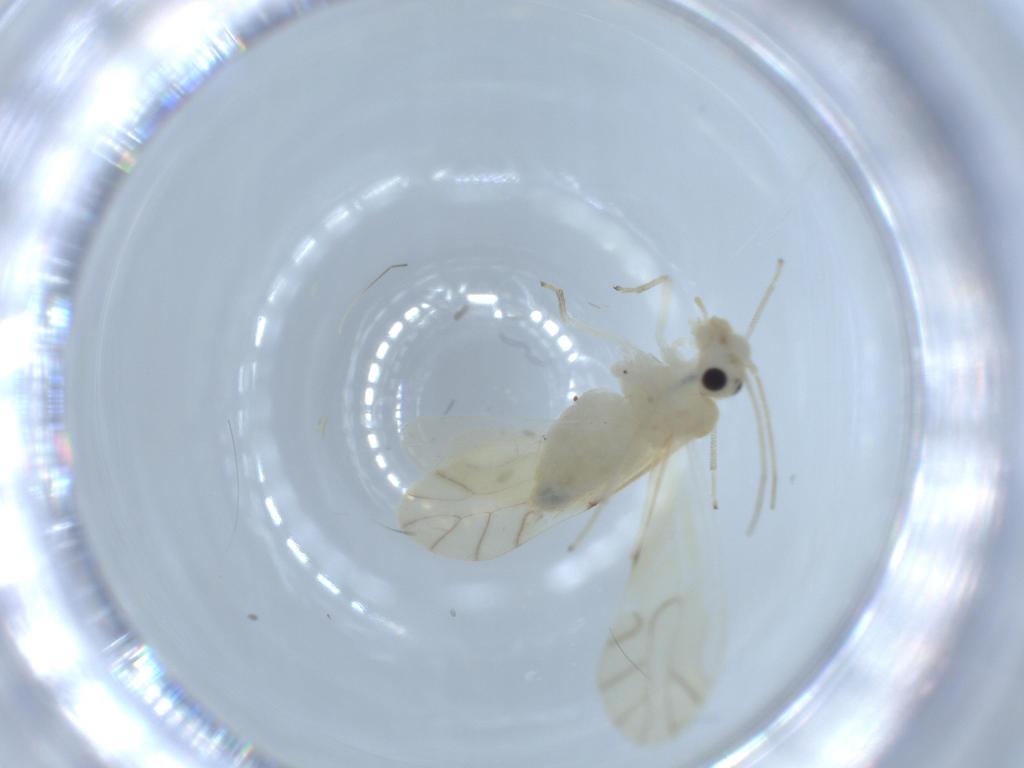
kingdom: Animalia
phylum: Arthropoda
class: Insecta
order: Psocodea
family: Caeciliusidae
